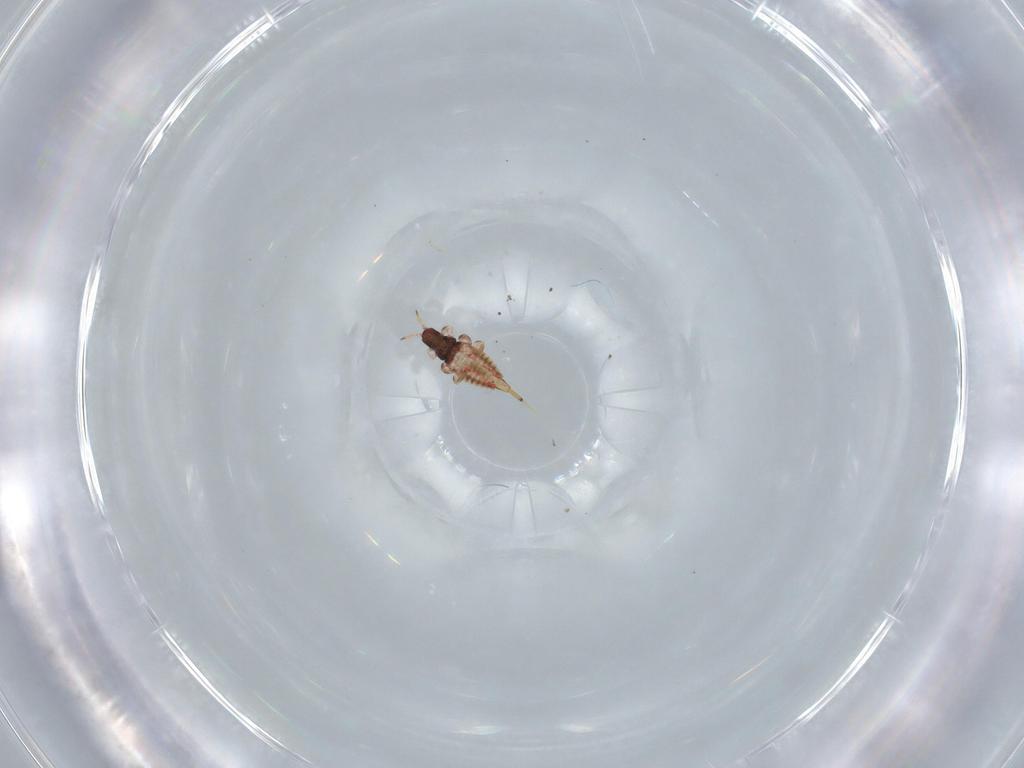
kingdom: Animalia
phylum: Arthropoda
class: Insecta
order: Thysanoptera
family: Phlaeothripidae
